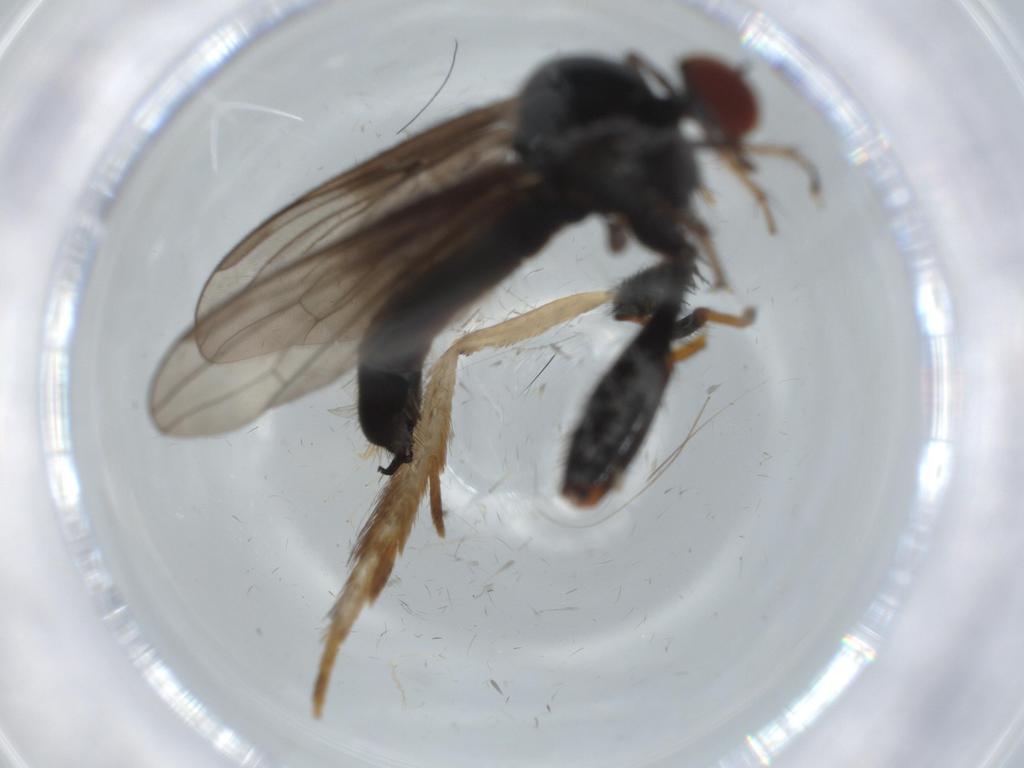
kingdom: Animalia
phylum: Arthropoda
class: Insecta
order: Diptera
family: Hybotidae
